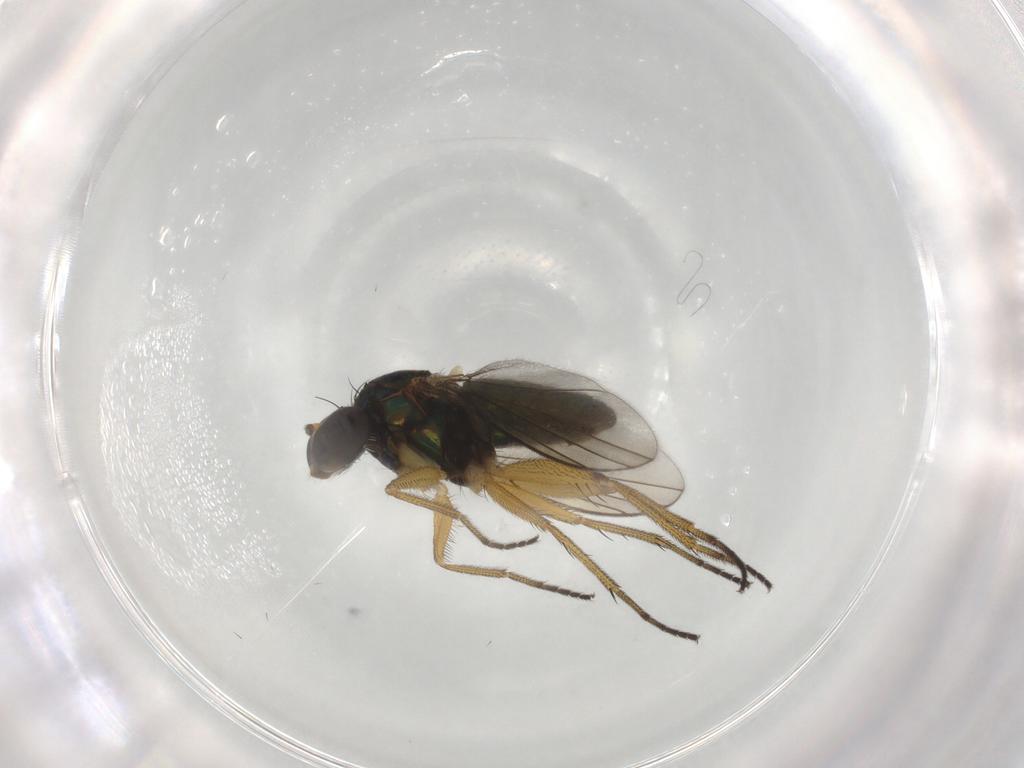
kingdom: Animalia
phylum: Arthropoda
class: Insecta
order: Diptera
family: Dolichopodidae
